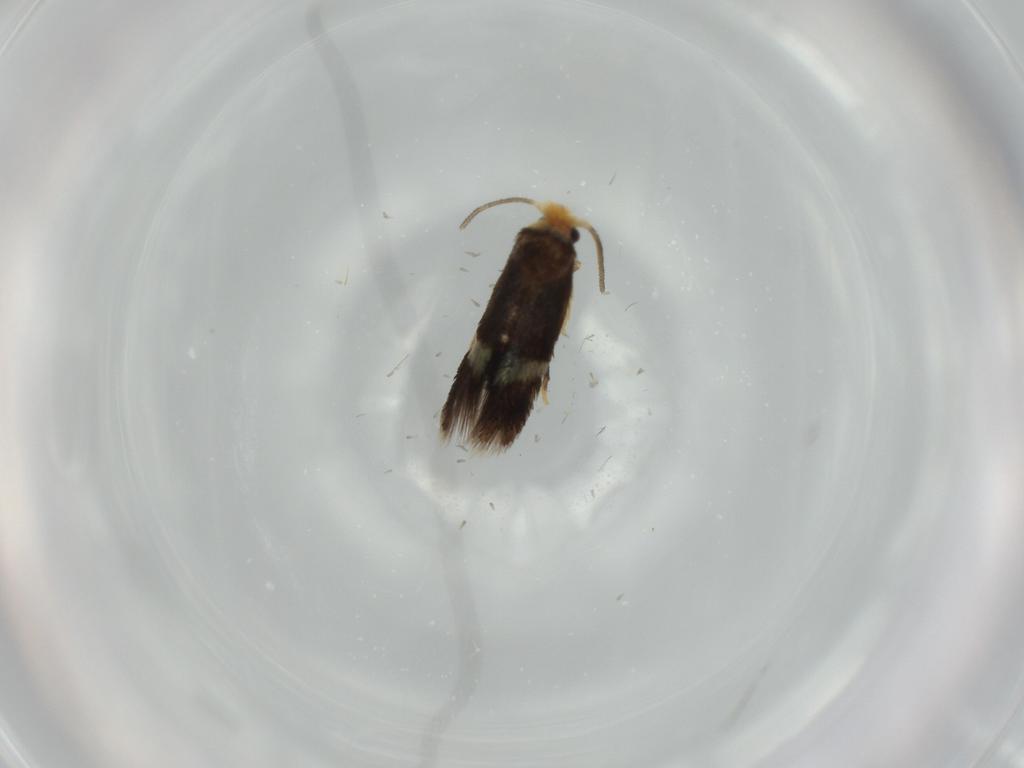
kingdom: Animalia
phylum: Arthropoda
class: Insecta
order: Lepidoptera
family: Nepticulidae
